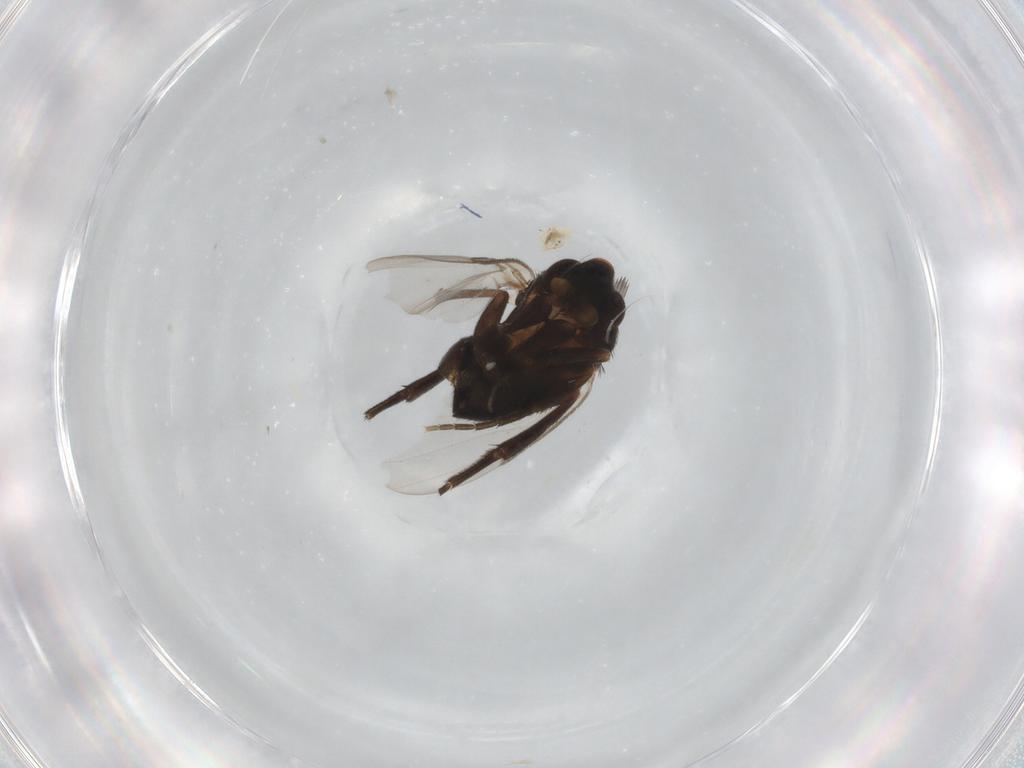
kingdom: Animalia
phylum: Arthropoda
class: Insecta
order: Diptera
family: Phoridae
